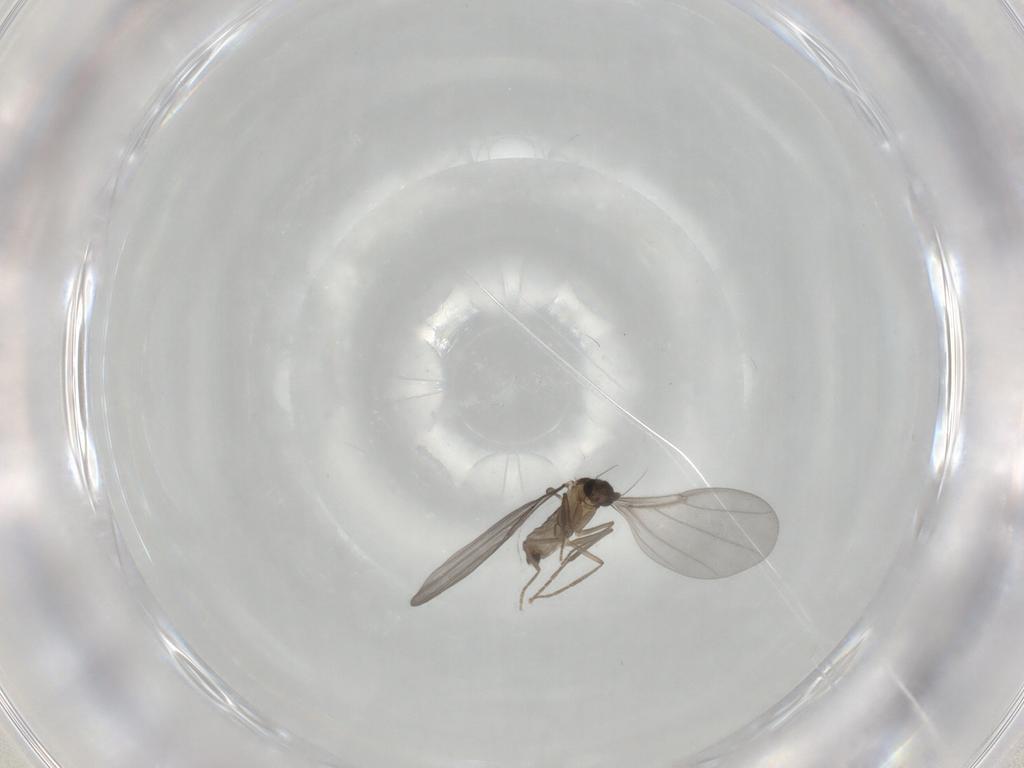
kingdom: Animalia
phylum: Arthropoda
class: Insecta
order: Diptera
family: Phoridae
